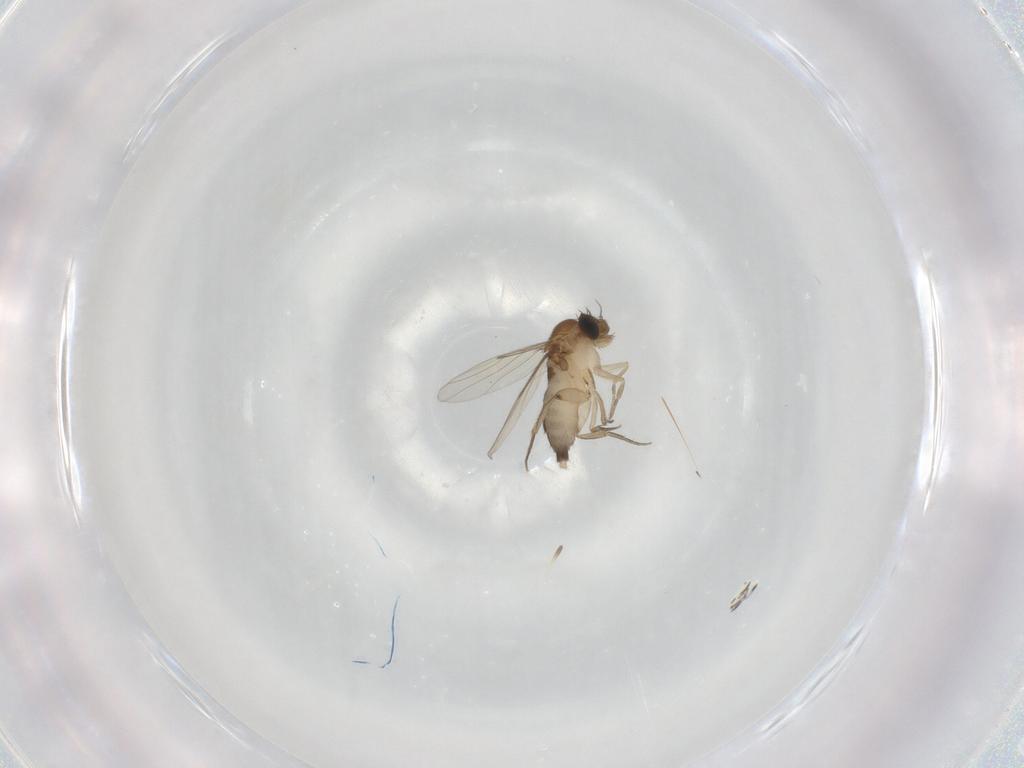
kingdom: Animalia
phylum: Arthropoda
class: Insecta
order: Diptera
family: Phoridae
